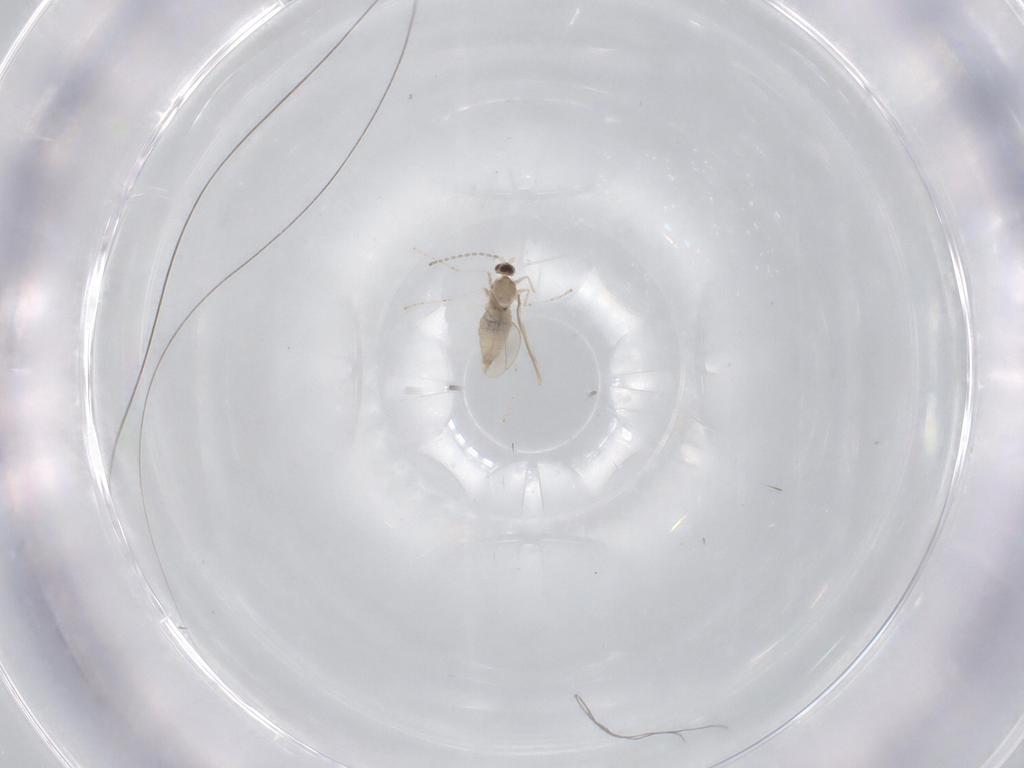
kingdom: Animalia
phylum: Arthropoda
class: Insecta
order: Diptera
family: Cecidomyiidae
